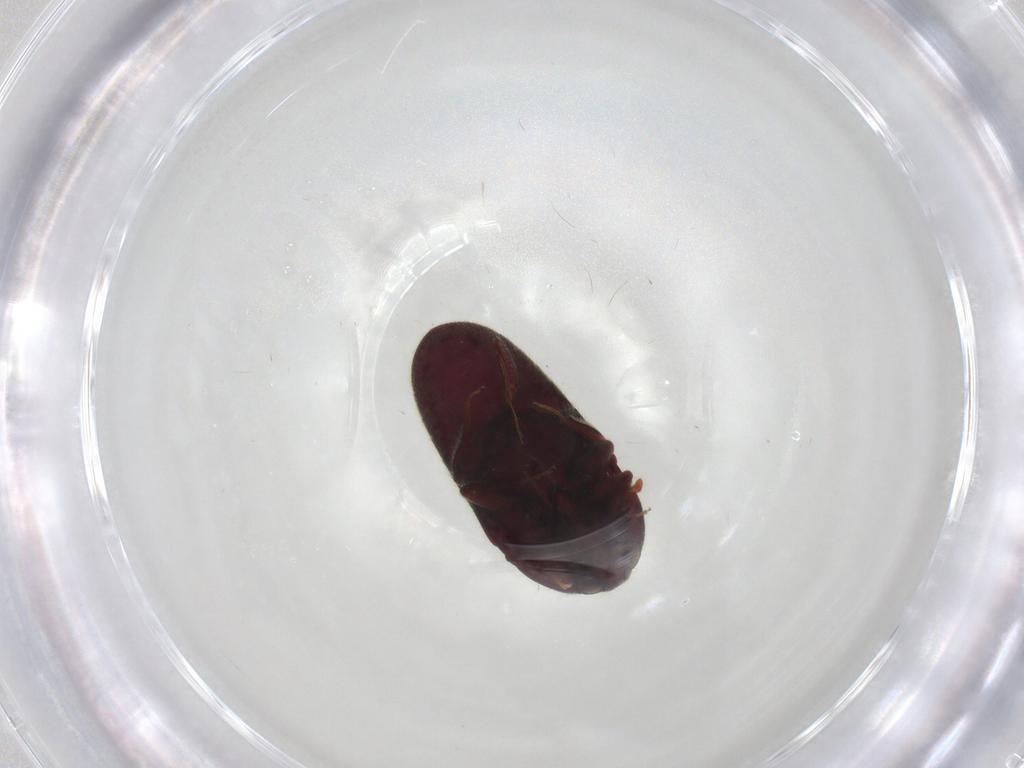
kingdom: Animalia
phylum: Arthropoda
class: Insecta
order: Coleoptera
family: Throscidae
